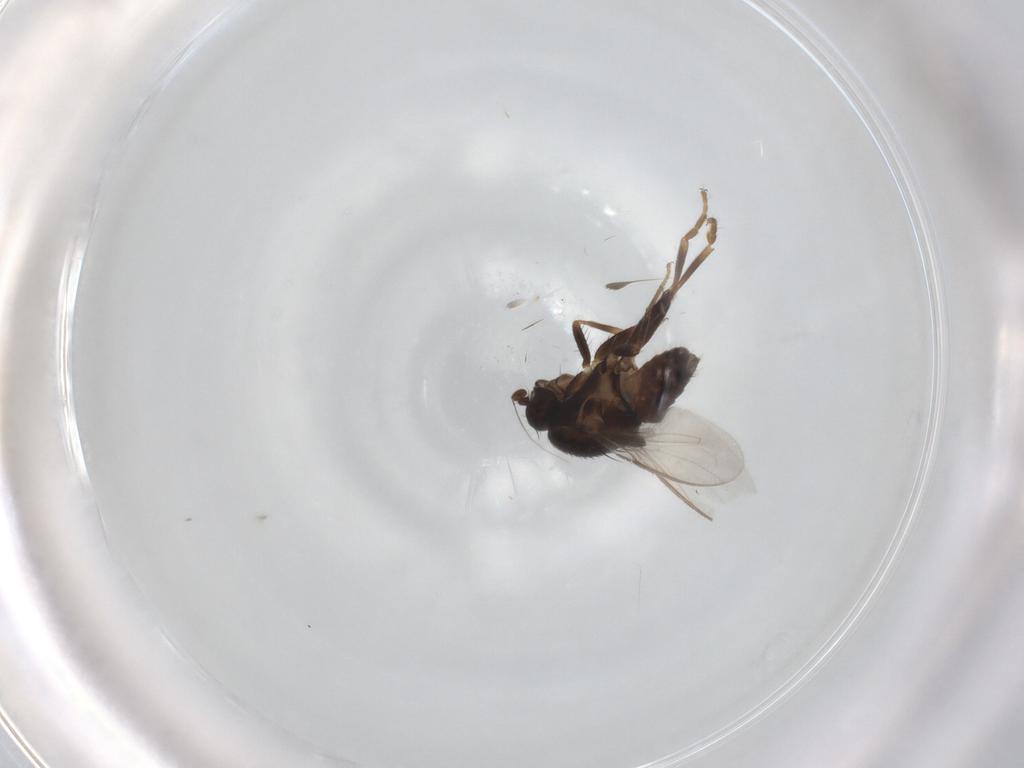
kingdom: Animalia
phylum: Arthropoda
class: Insecta
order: Diptera
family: Sphaeroceridae
